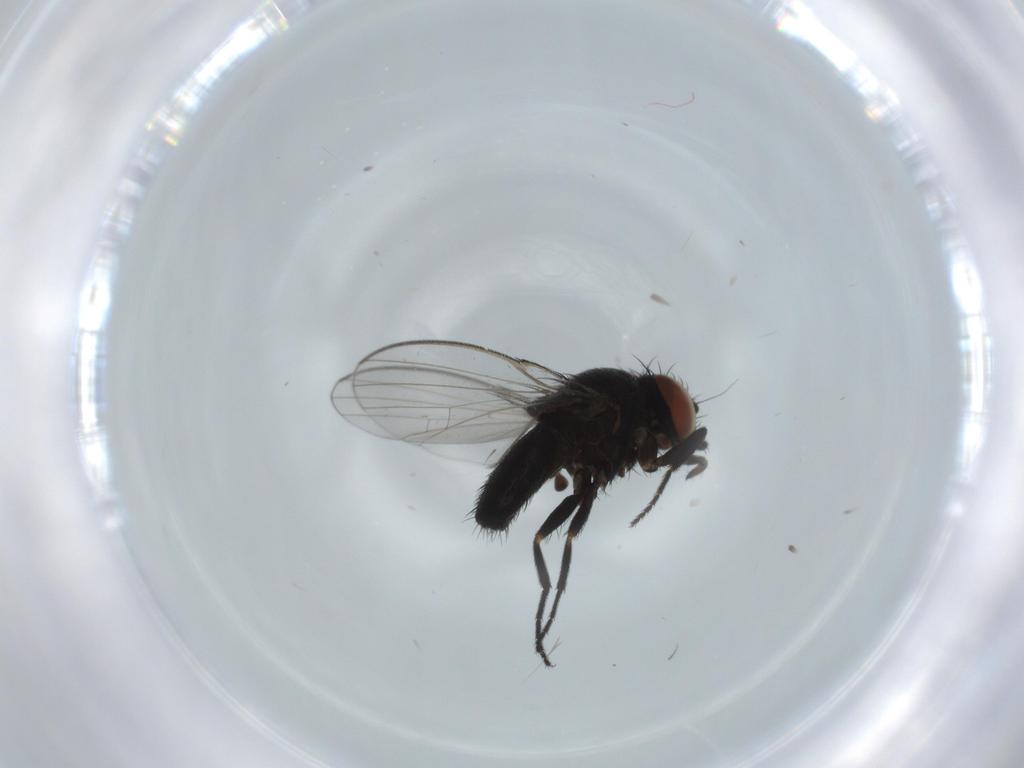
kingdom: Animalia
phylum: Arthropoda
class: Insecta
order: Diptera
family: Milichiidae
